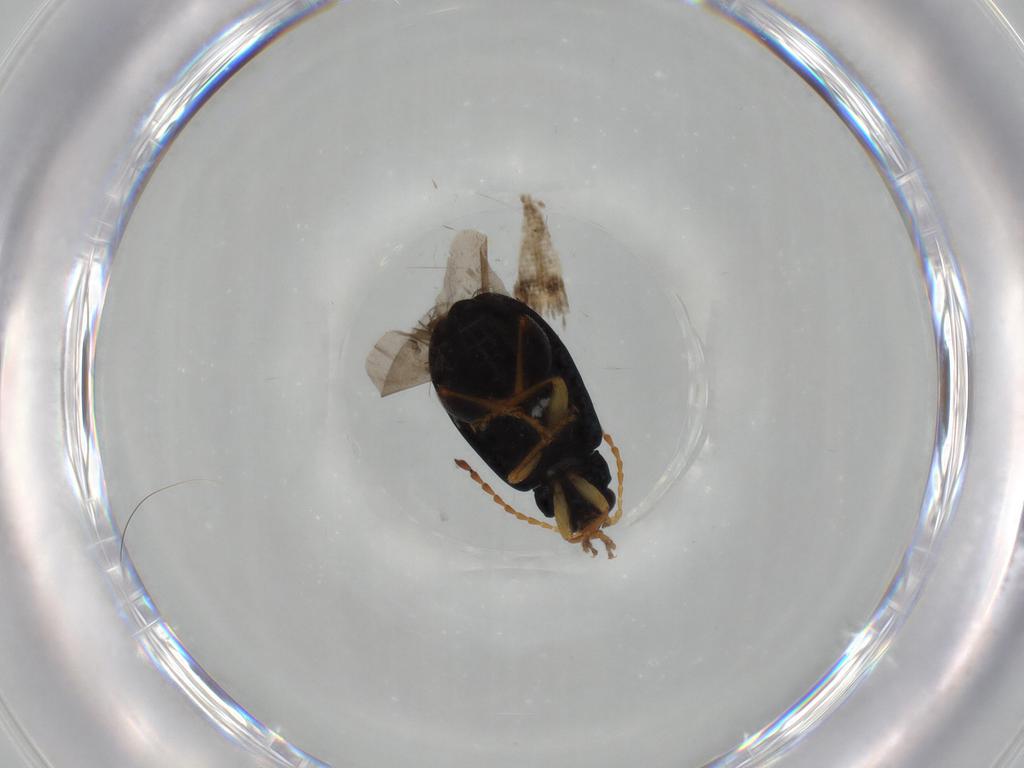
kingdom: Animalia
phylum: Arthropoda
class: Insecta
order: Coleoptera
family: Chrysomelidae
